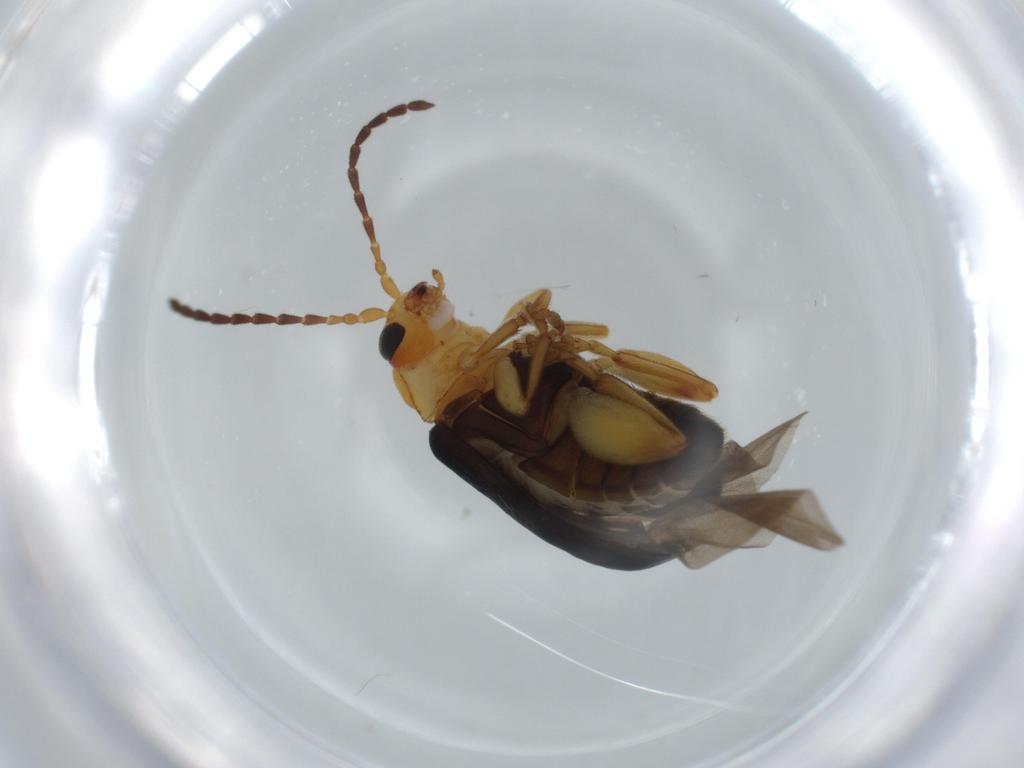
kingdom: Animalia
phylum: Arthropoda
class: Insecta
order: Coleoptera
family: Chrysomelidae
